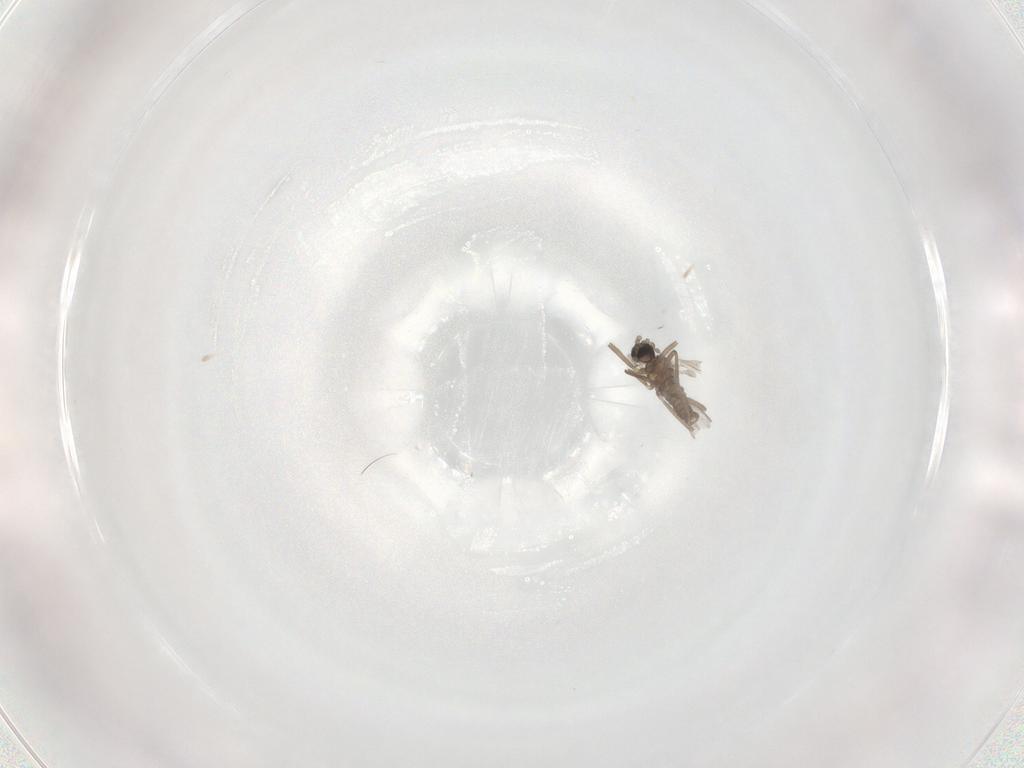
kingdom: Animalia
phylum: Arthropoda
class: Insecta
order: Diptera
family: Cecidomyiidae
